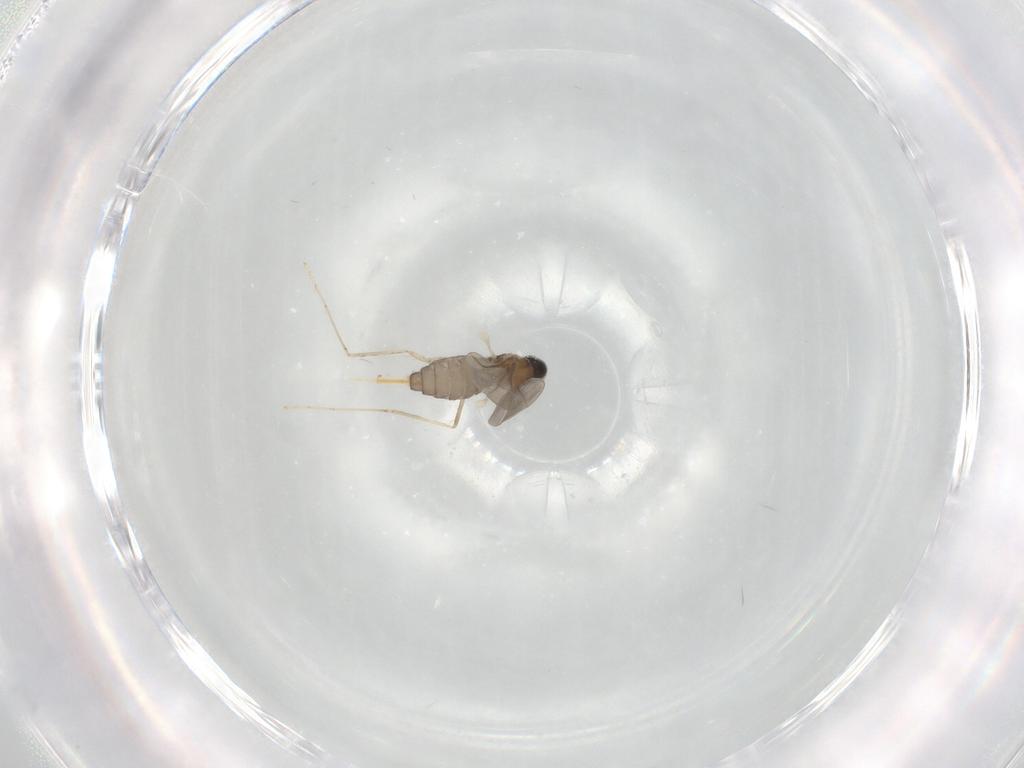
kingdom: Animalia
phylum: Arthropoda
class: Insecta
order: Diptera
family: Cecidomyiidae
